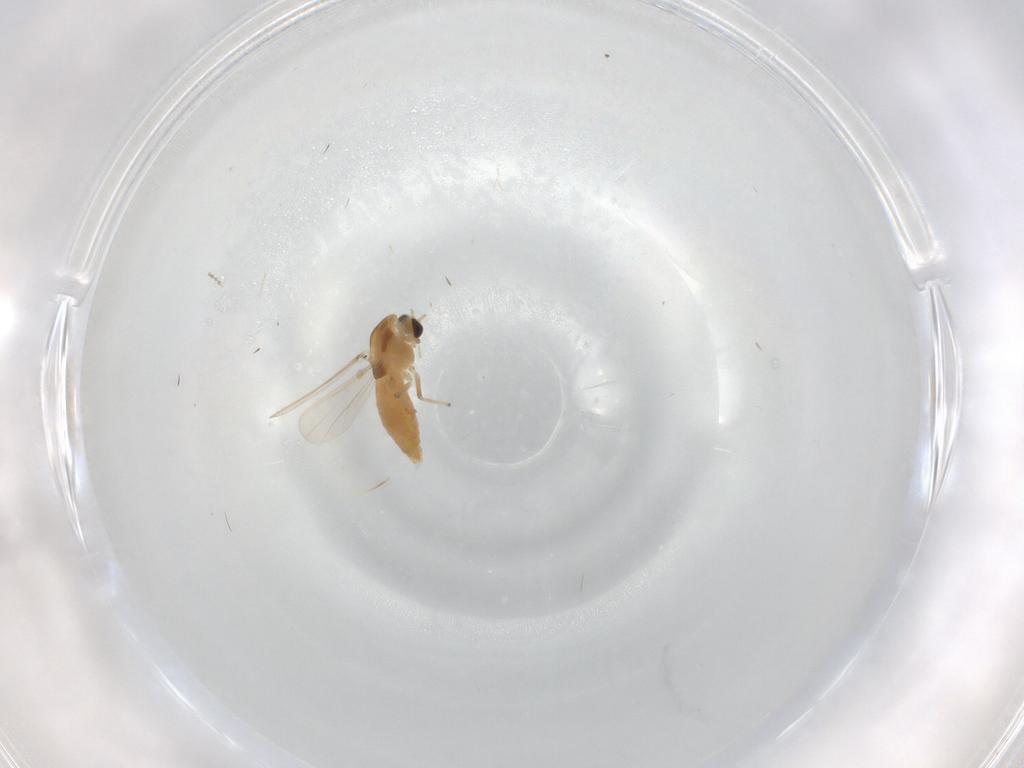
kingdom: Animalia
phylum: Arthropoda
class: Insecta
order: Diptera
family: Chironomidae
